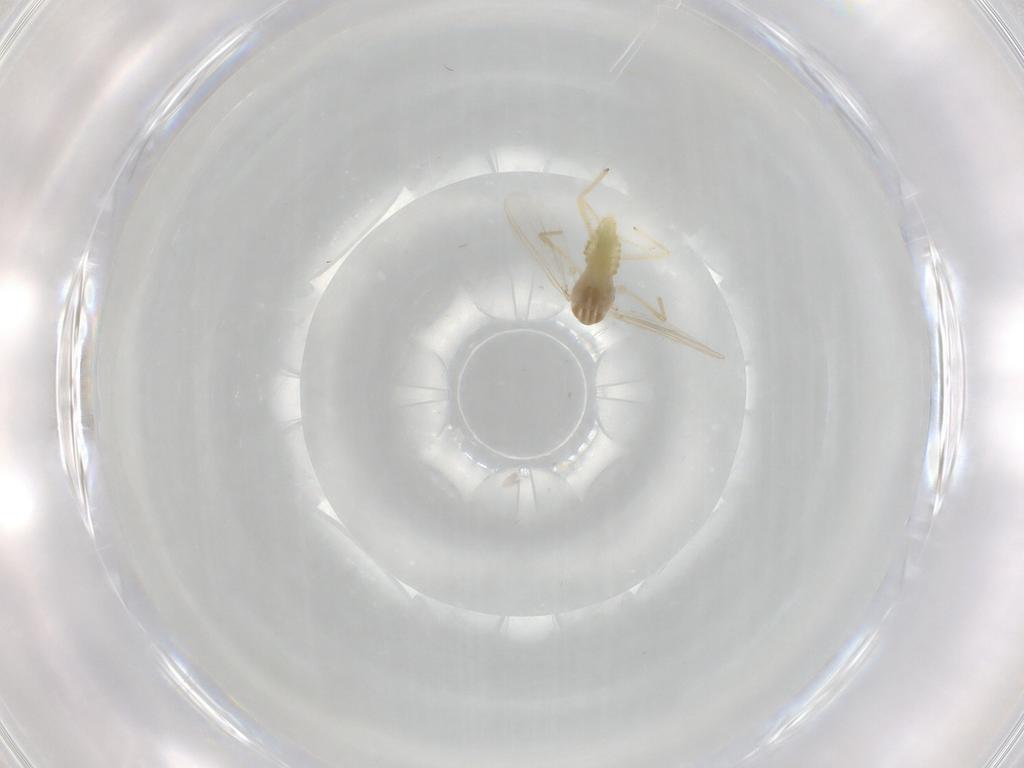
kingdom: Animalia
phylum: Arthropoda
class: Insecta
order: Diptera
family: Chironomidae
